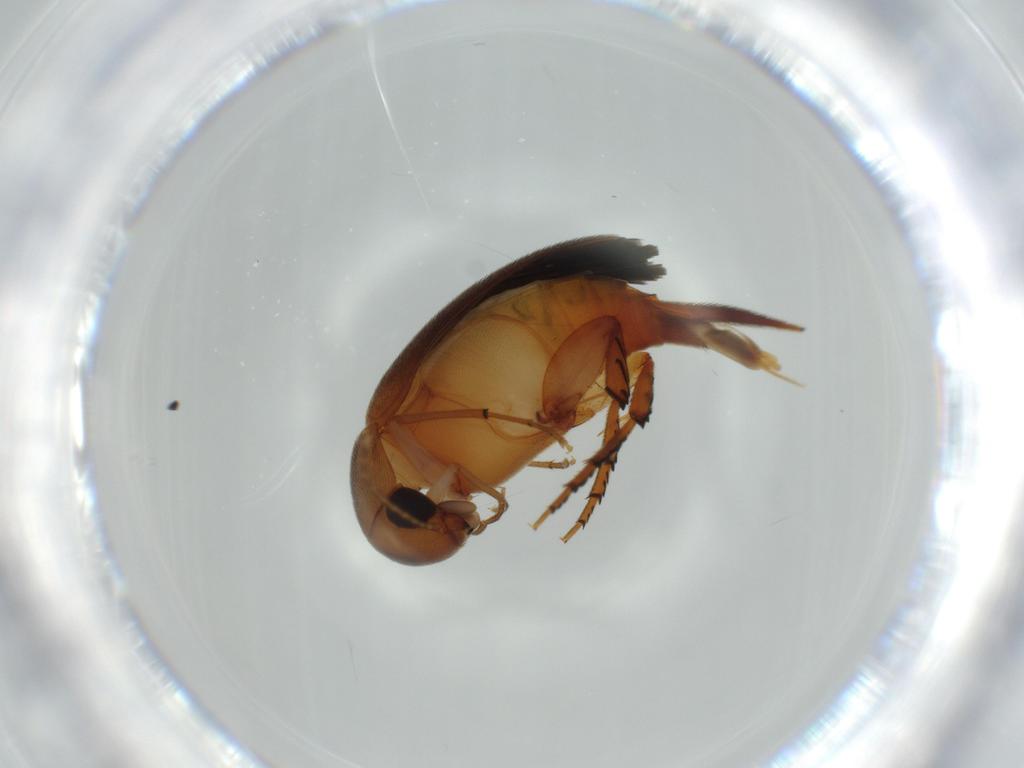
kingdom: Animalia
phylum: Arthropoda
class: Insecta
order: Coleoptera
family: Mordellidae
